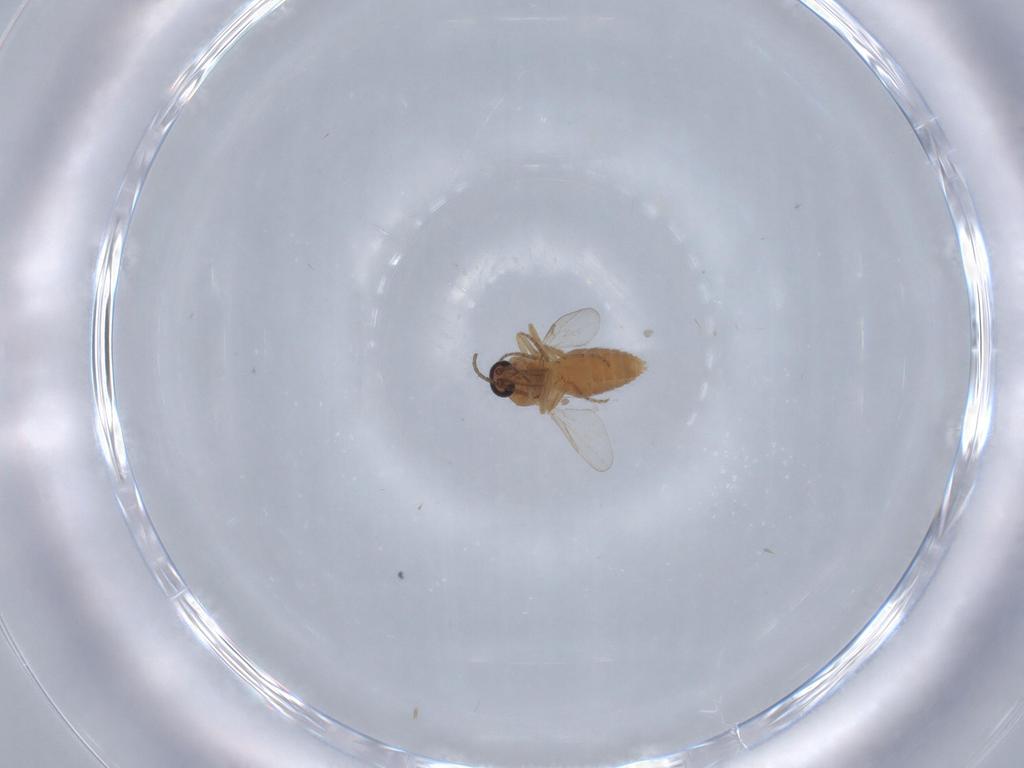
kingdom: Animalia
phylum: Arthropoda
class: Insecta
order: Diptera
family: Ceratopogonidae
